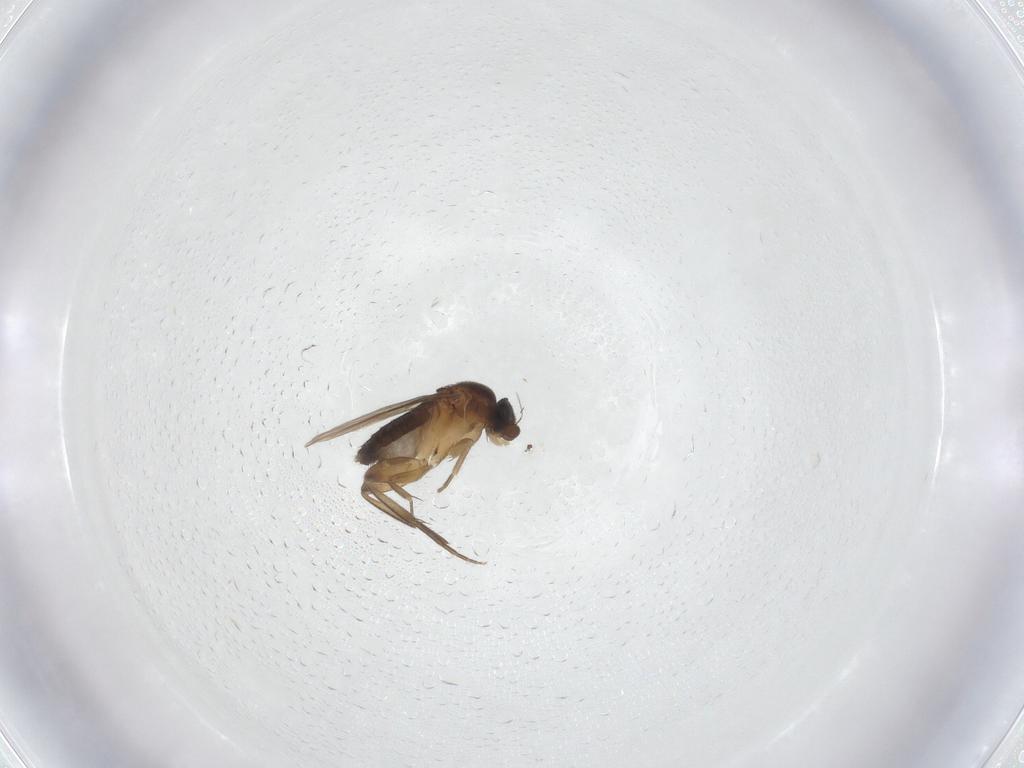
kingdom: Animalia
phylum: Arthropoda
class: Insecta
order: Diptera
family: Phoridae
